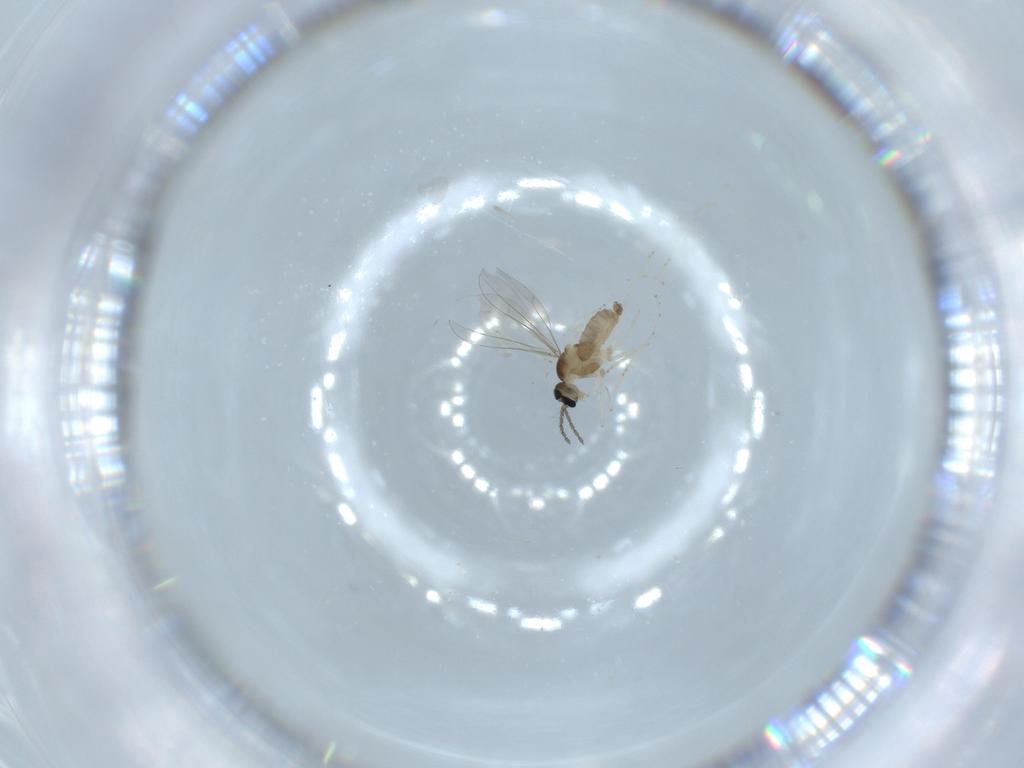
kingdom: Animalia
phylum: Arthropoda
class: Insecta
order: Diptera
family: Cecidomyiidae
